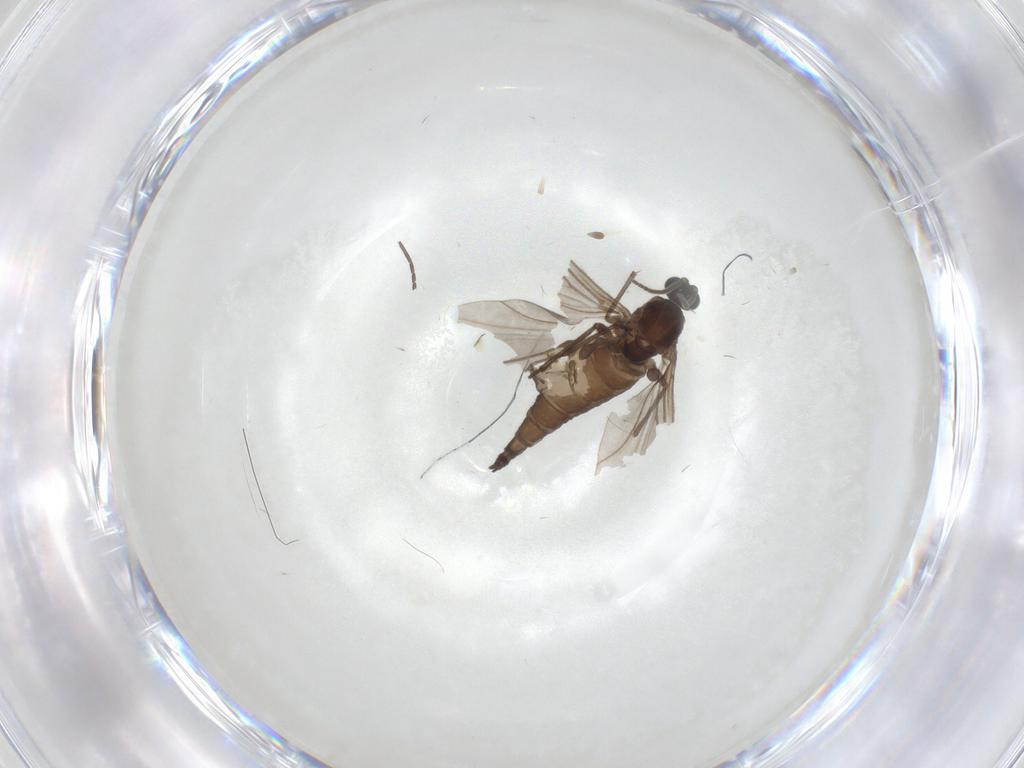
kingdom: Animalia
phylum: Arthropoda
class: Insecta
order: Diptera
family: Sciaridae
